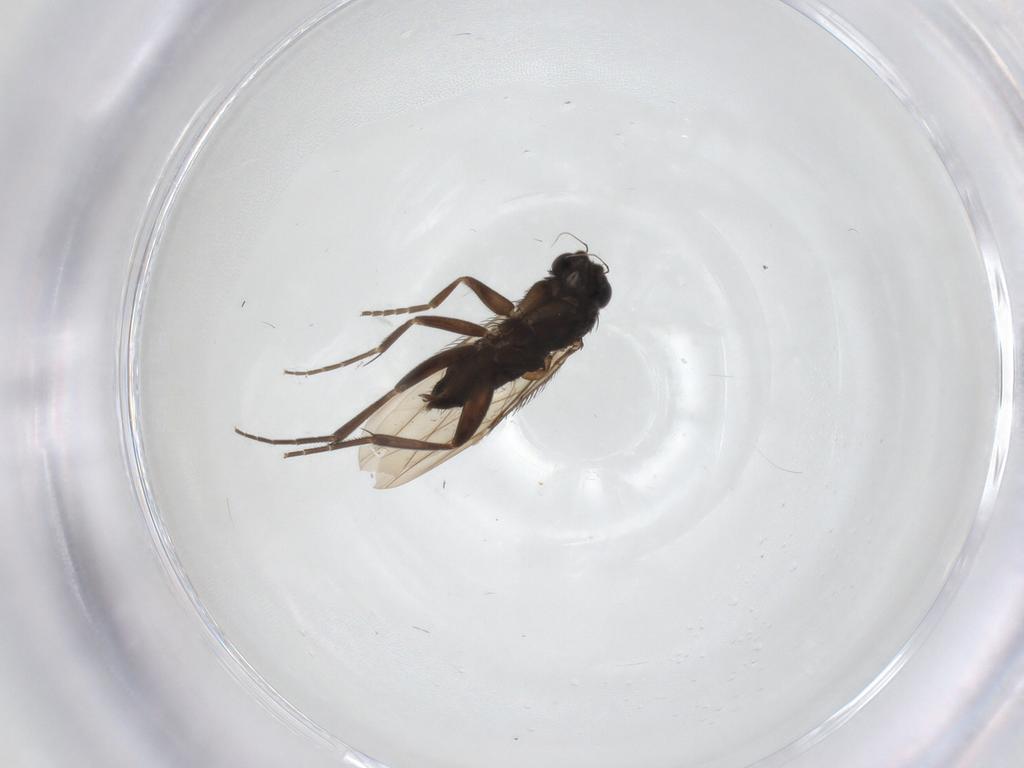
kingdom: Animalia
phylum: Arthropoda
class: Insecta
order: Diptera
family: Phoridae
